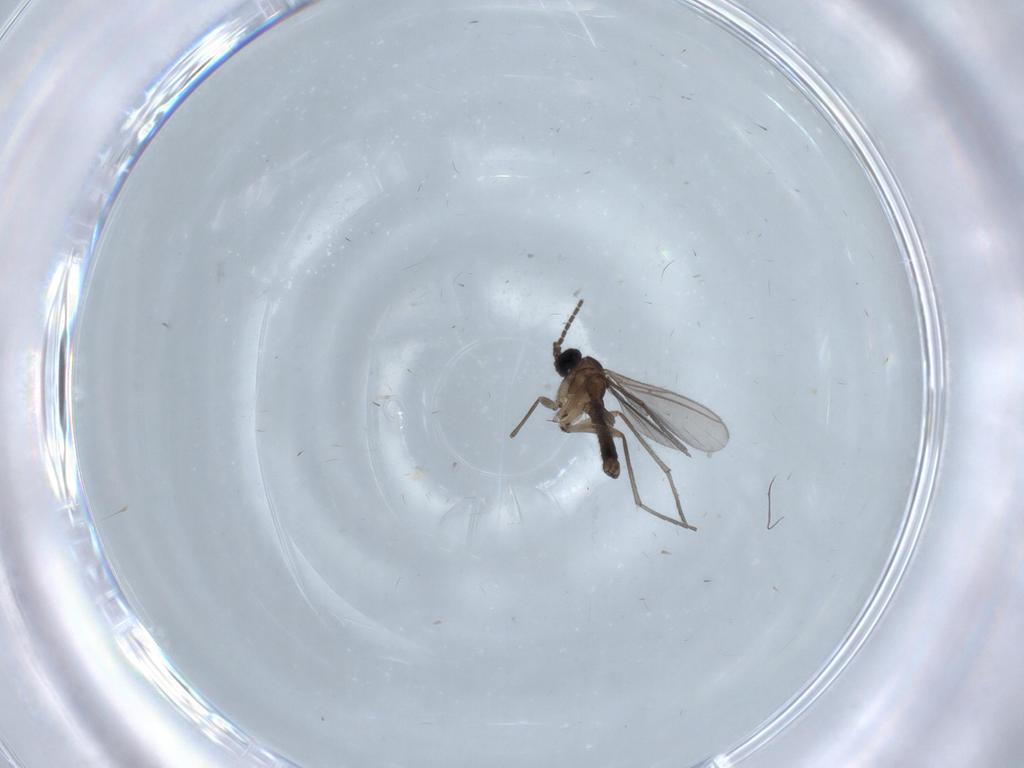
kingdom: Animalia
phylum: Arthropoda
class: Insecta
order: Diptera
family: Sciaridae
